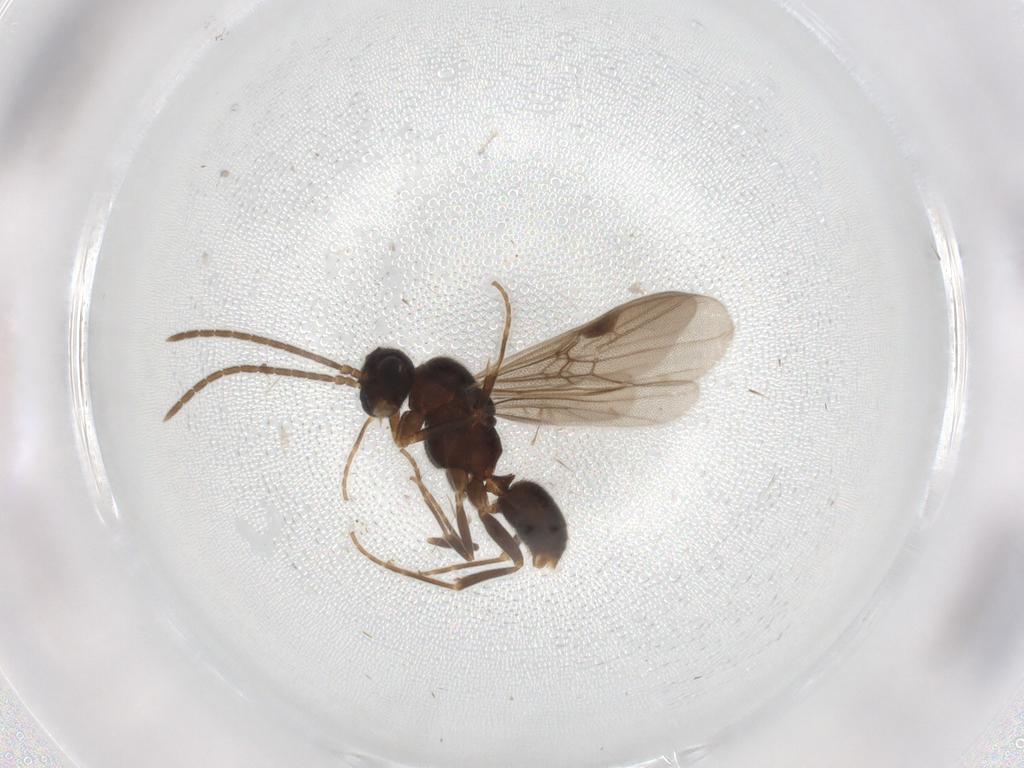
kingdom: Animalia
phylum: Arthropoda
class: Insecta
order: Hymenoptera
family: Formicidae
